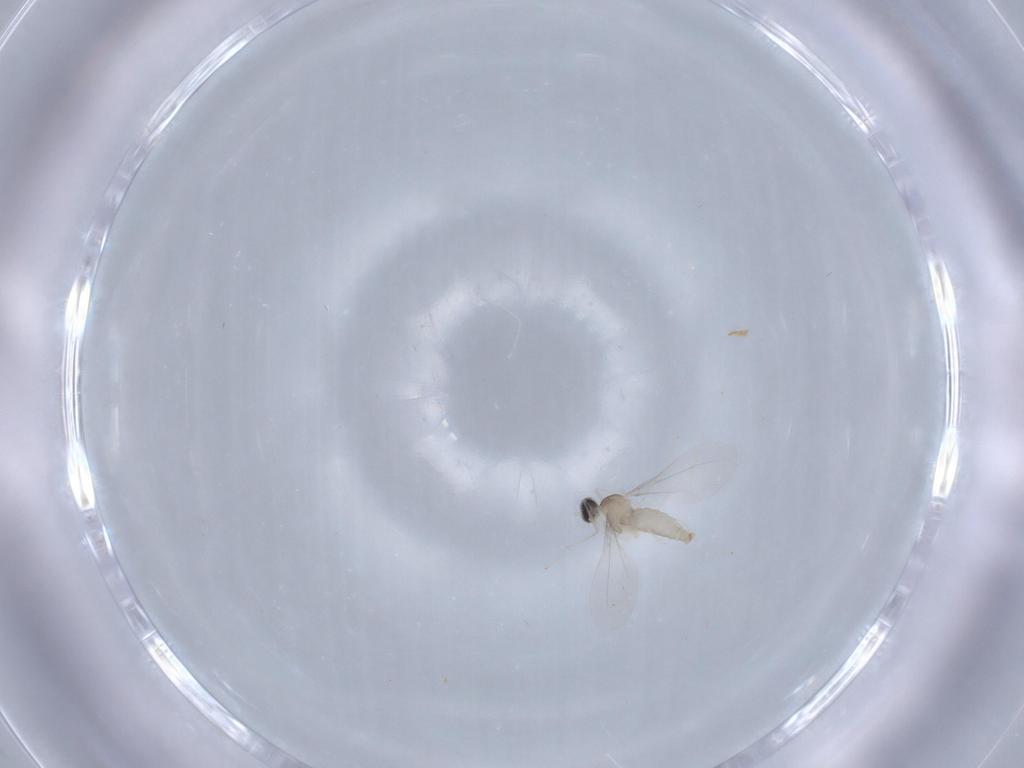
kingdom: Animalia
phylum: Arthropoda
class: Insecta
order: Diptera
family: Cecidomyiidae
